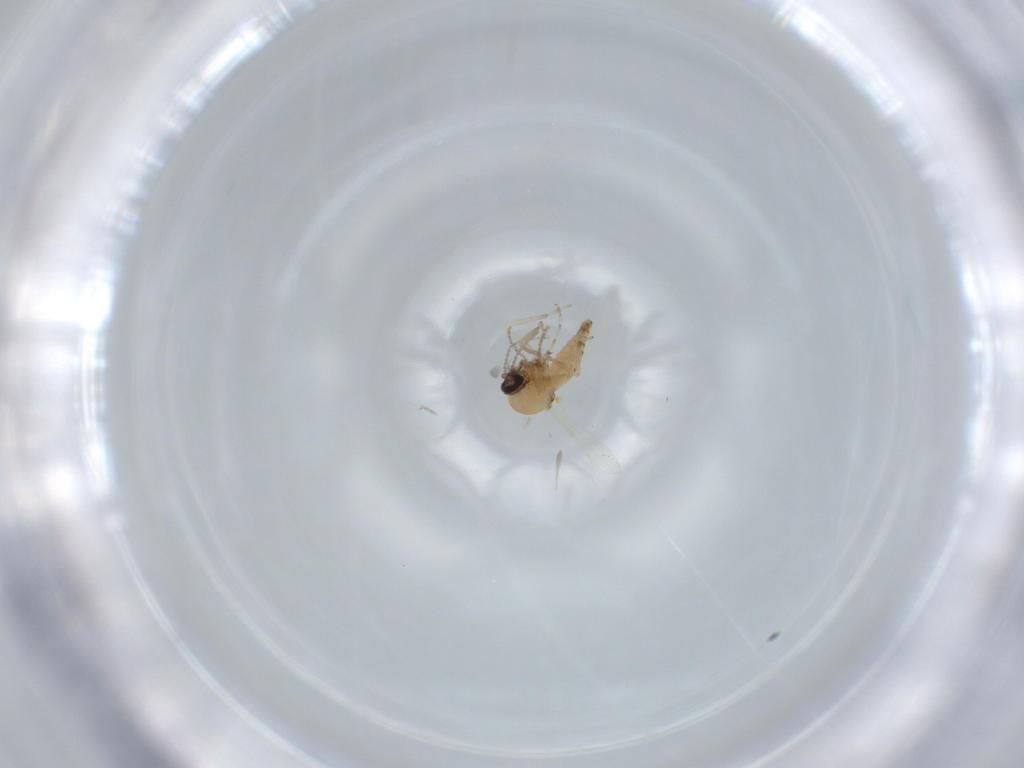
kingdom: Animalia
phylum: Arthropoda
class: Insecta
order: Diptera
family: Ceratopogonidae
